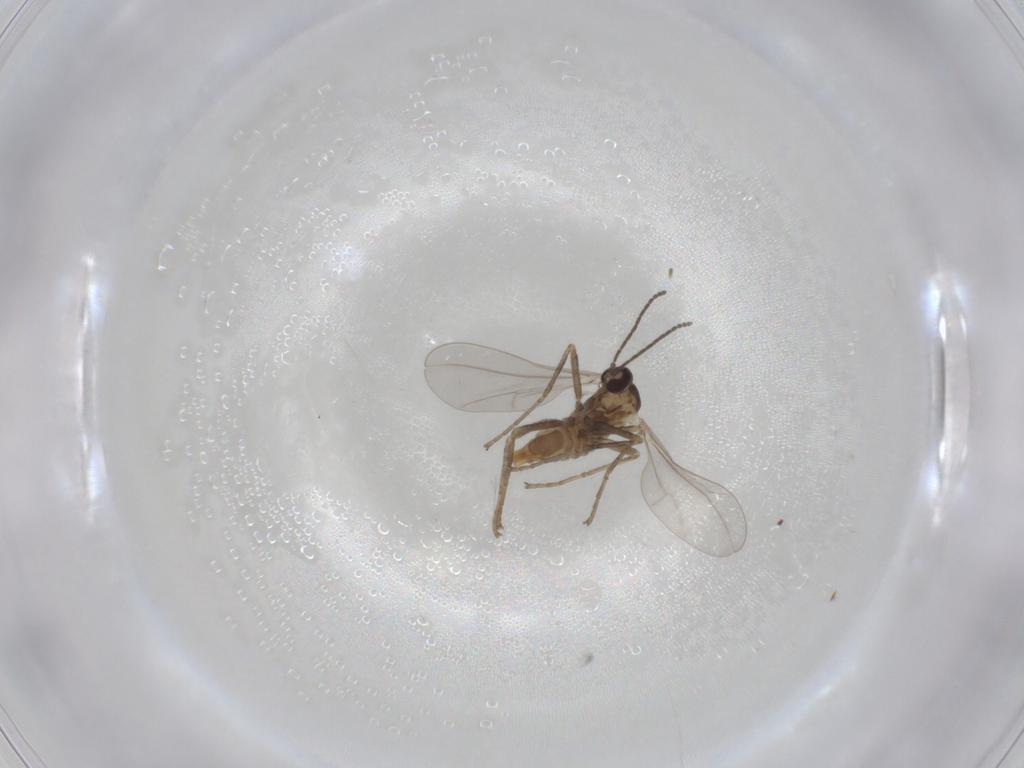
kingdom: Animalia
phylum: Arthropoda
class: Insecta
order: Diptera
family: Cecidomyiidae
